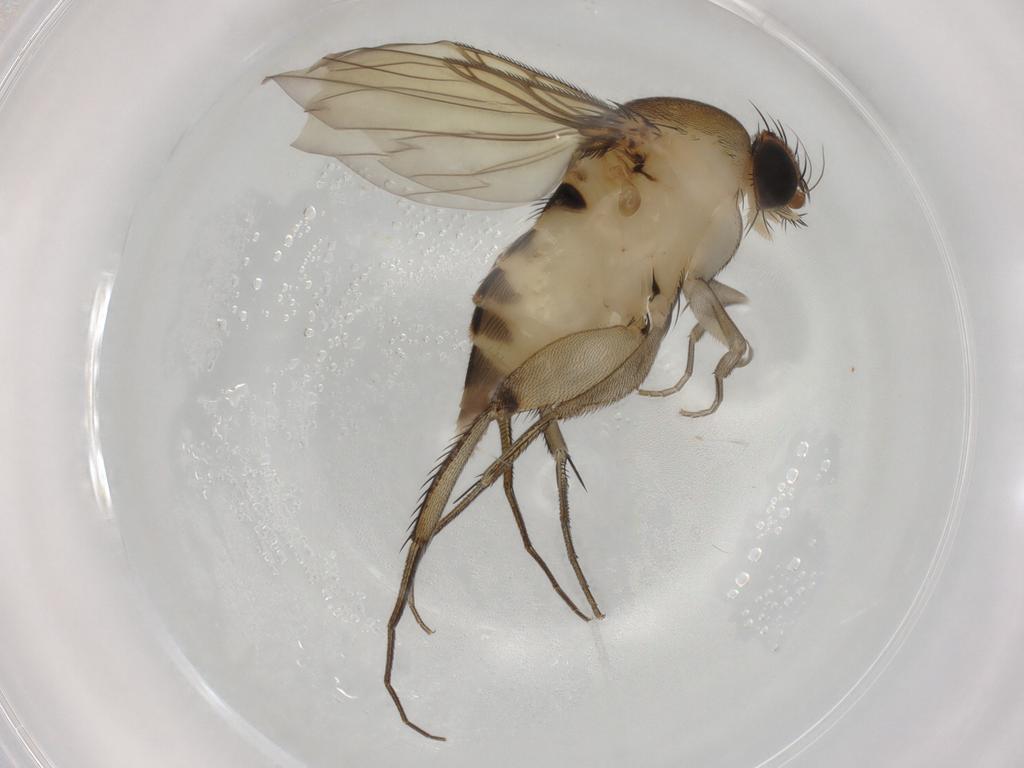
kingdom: Animalia
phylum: Arthropoda
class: Insecta
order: Diptera
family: Phoridae
